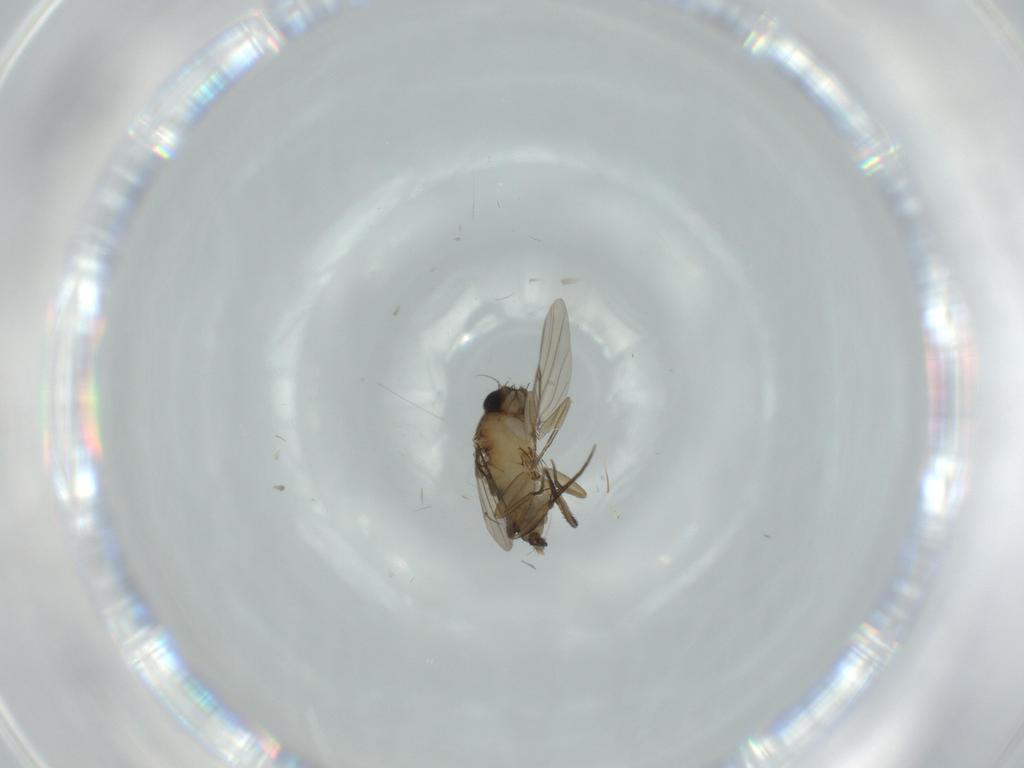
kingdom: Animalia
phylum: Arthropoda
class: Insecta
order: Diptera
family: Phoridae
